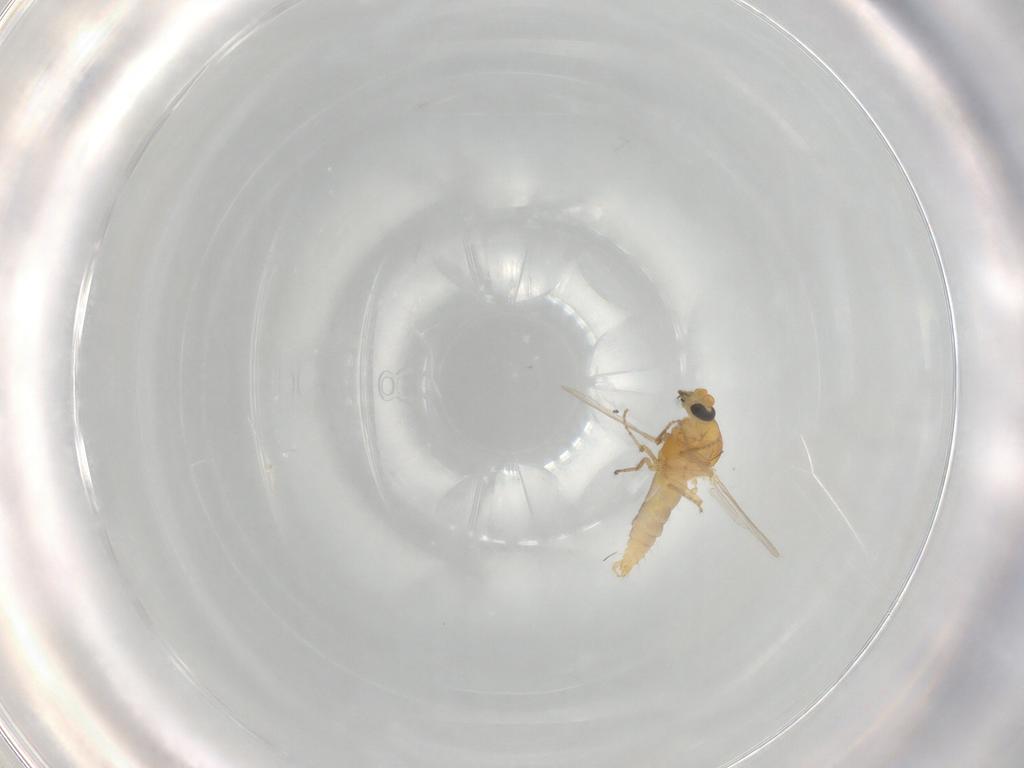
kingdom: Animalia
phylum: Arthropoda
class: Insecta
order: Diptera
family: Ceratopogonidae
